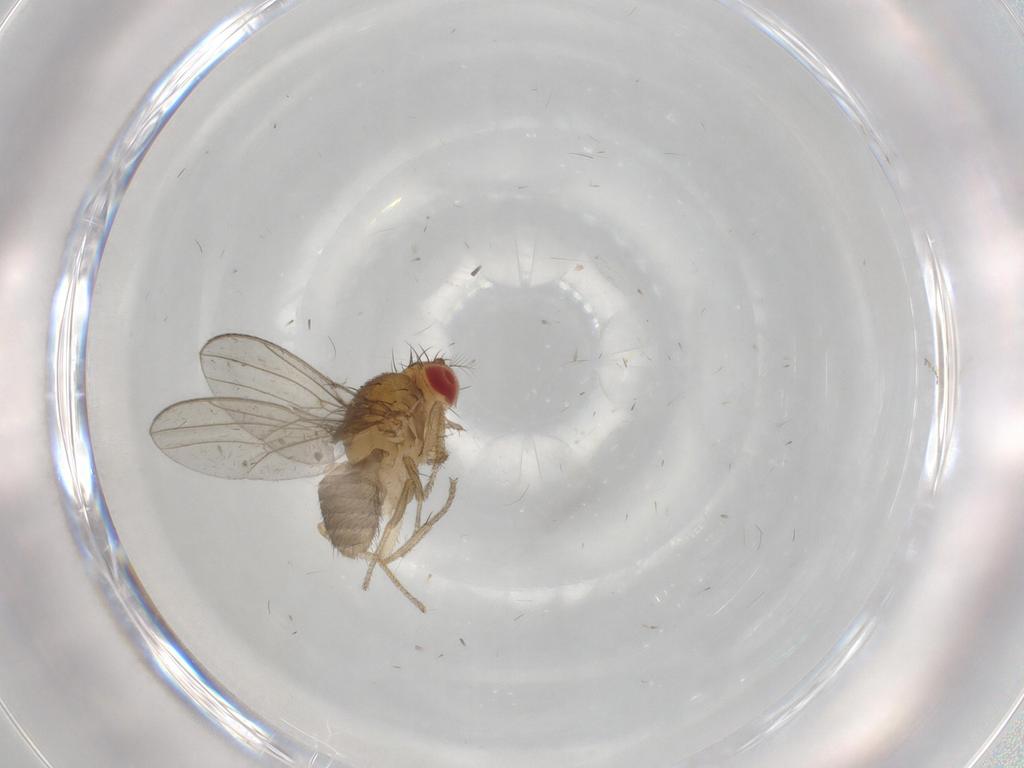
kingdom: Animalia
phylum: Arthropoda
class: Insecta
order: Diptera
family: Drosophilidae
